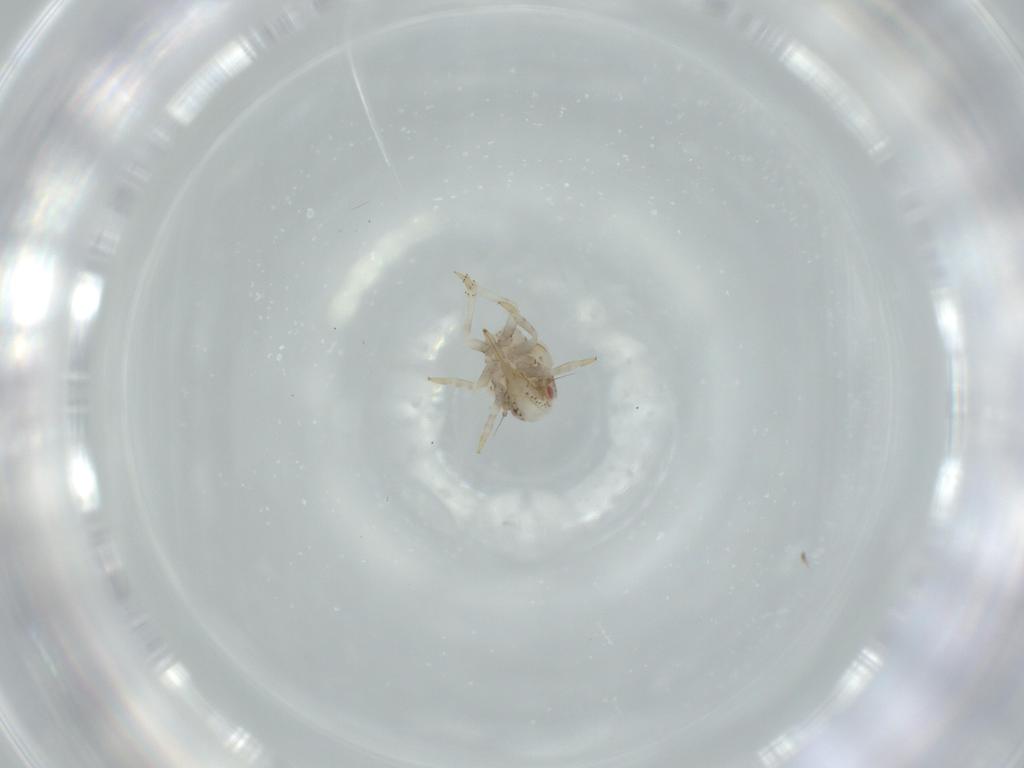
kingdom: Animalia
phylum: Arthropoda
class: Insecta
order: Hemiptera
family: Acanaloniidae
